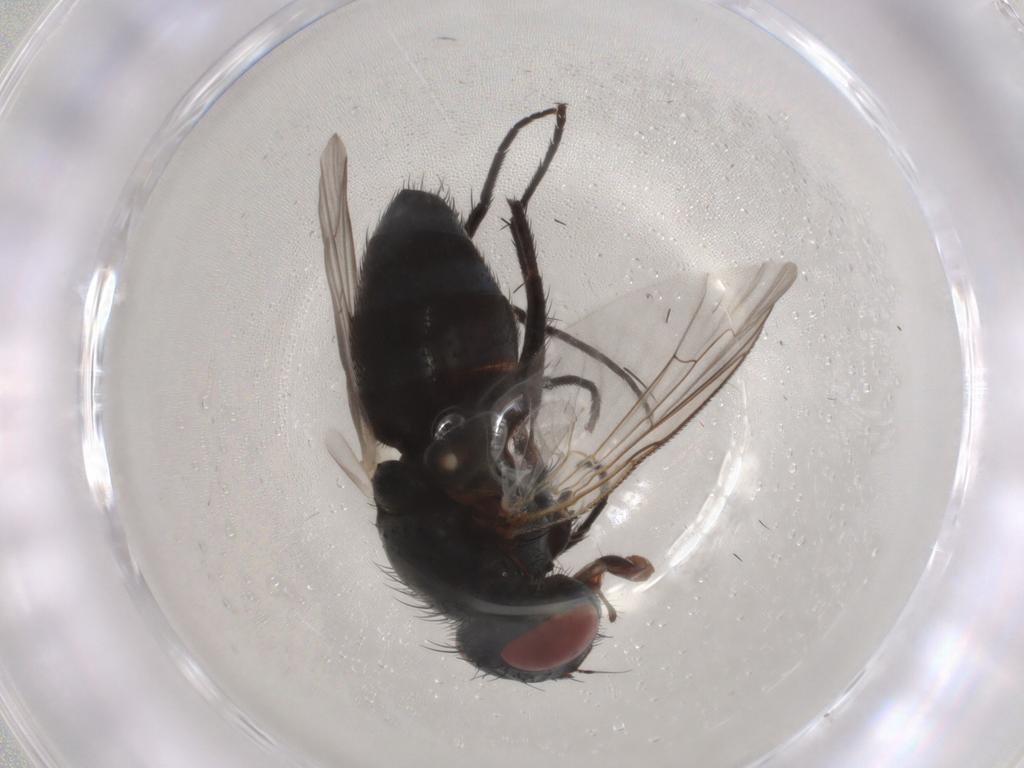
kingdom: Animalia
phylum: Arthropoda
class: Insecta
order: Diptera
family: Sarcophagidae
